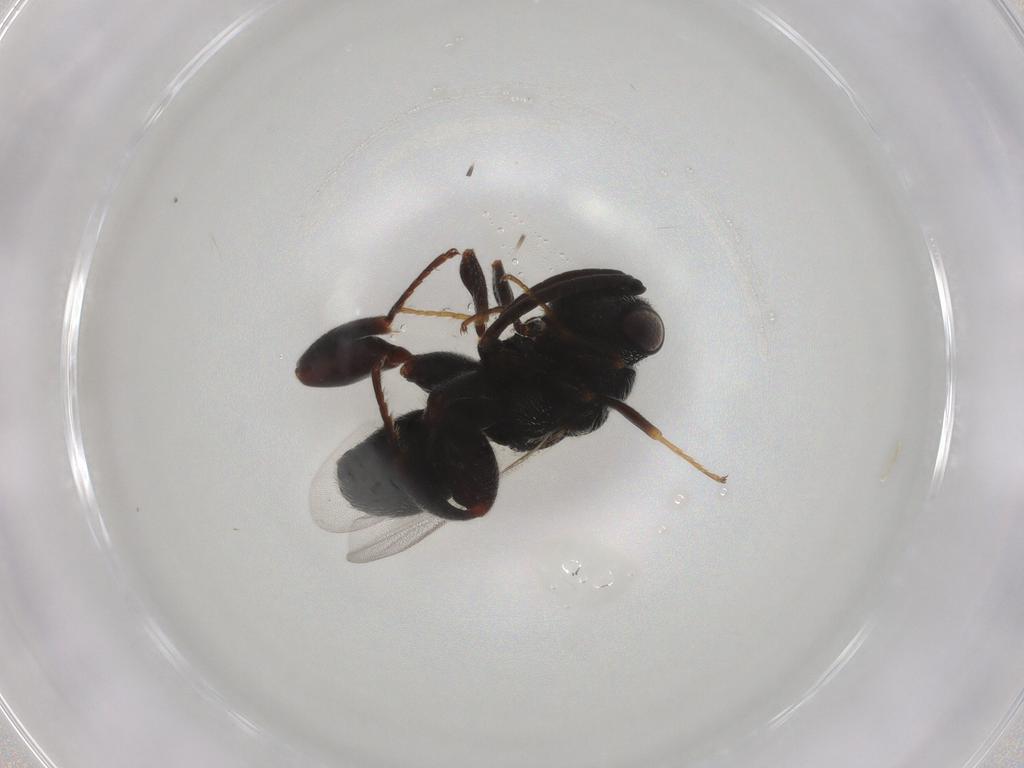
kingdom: Animalia
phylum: Arthropoda
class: Insecta
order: Hymenoptera
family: Chalcididae
